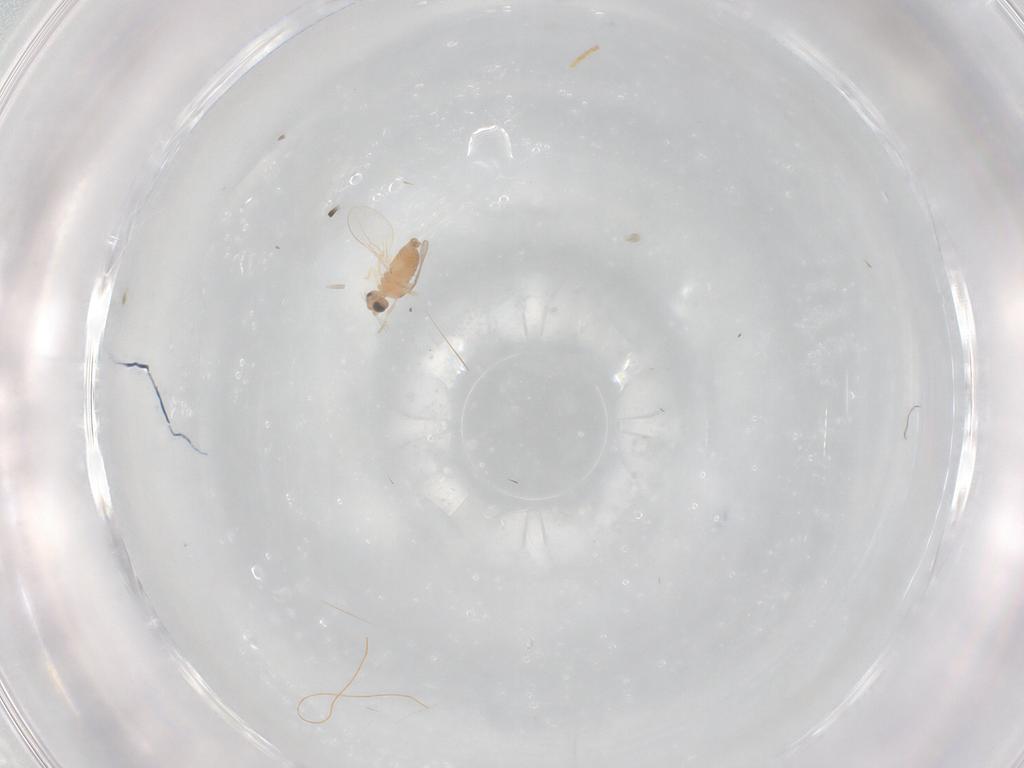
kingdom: Animalia
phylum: Arthropoda
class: Insecta
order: Diptera
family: Cecidomyiidae
